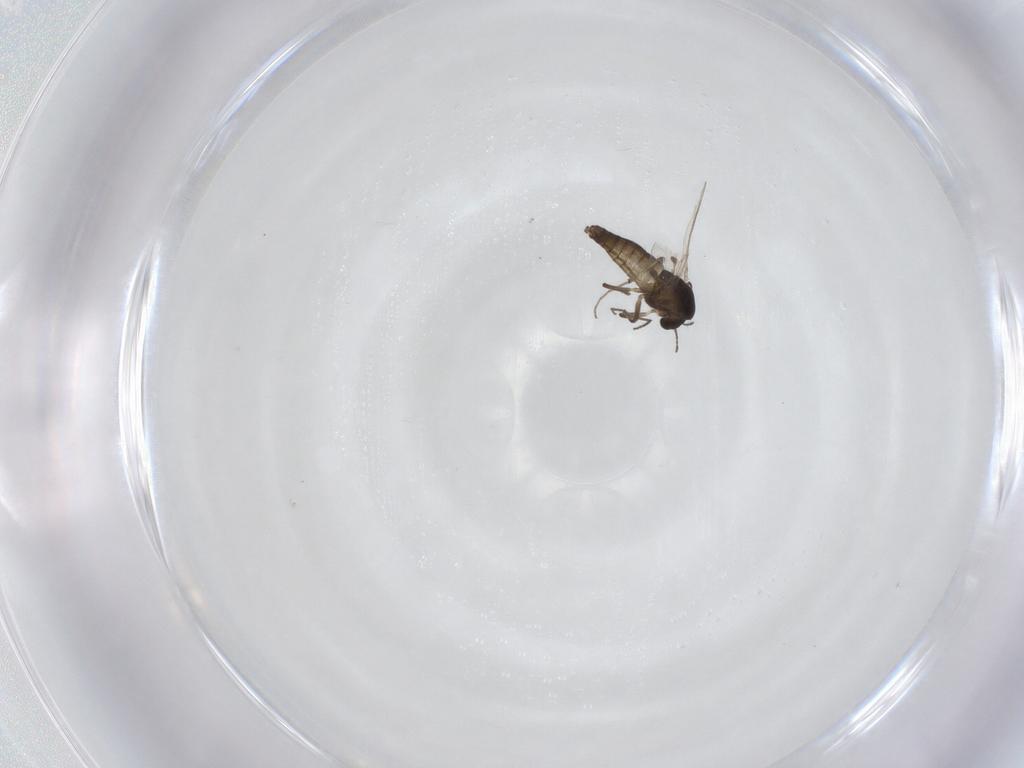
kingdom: Animalia
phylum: Arthropoda
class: Insecta
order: Diptera
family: Chironomidae
